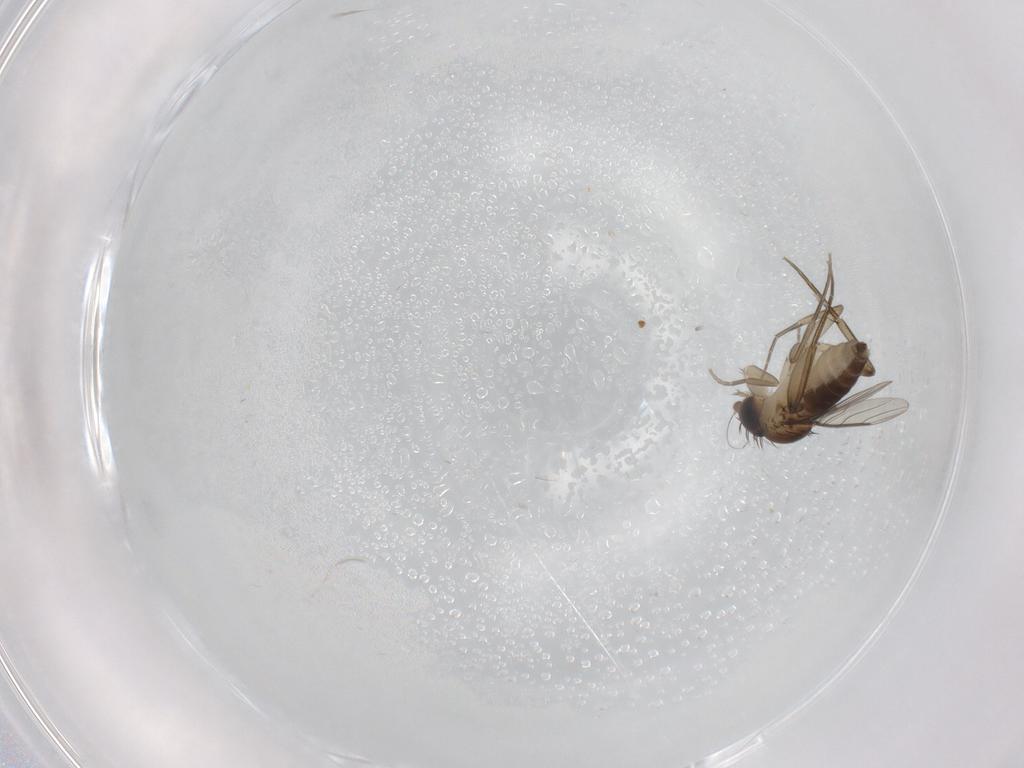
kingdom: Animalia
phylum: Arthropoda
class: Insecta
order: Diptera
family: Phoridae
